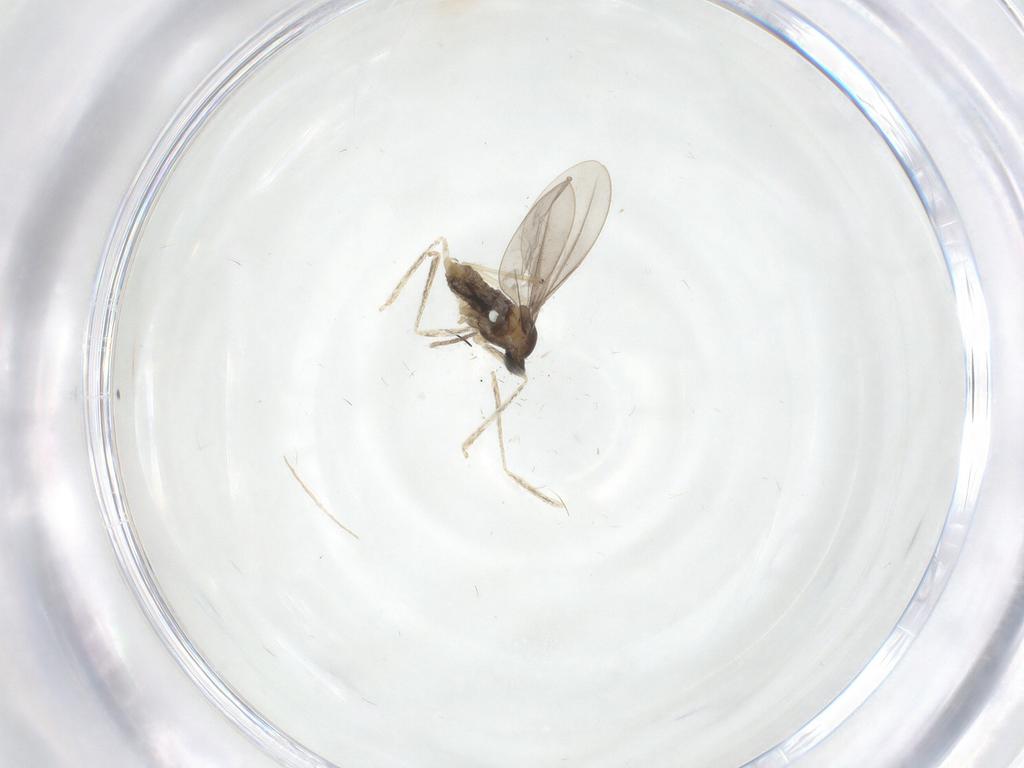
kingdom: Animalia
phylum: Arthropoda
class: Insecta
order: Diptera
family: Cecidomyiidae
